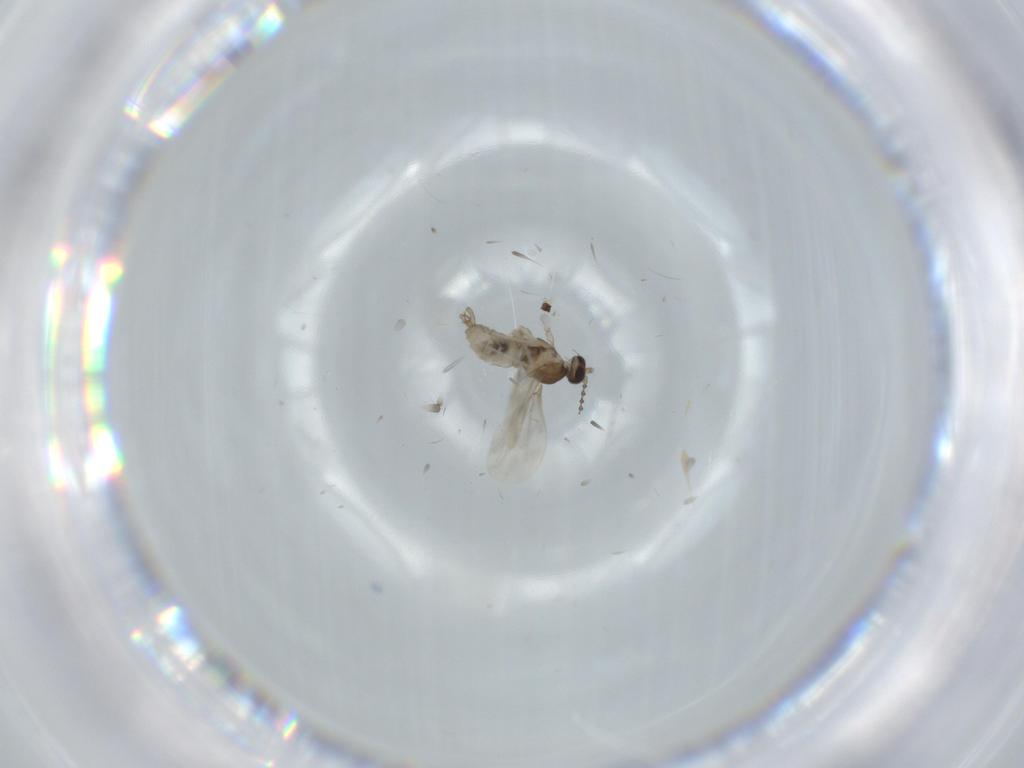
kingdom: Animalia
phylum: Arthropoda
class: Insecta
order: Diptera
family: Cecidomyiidae
